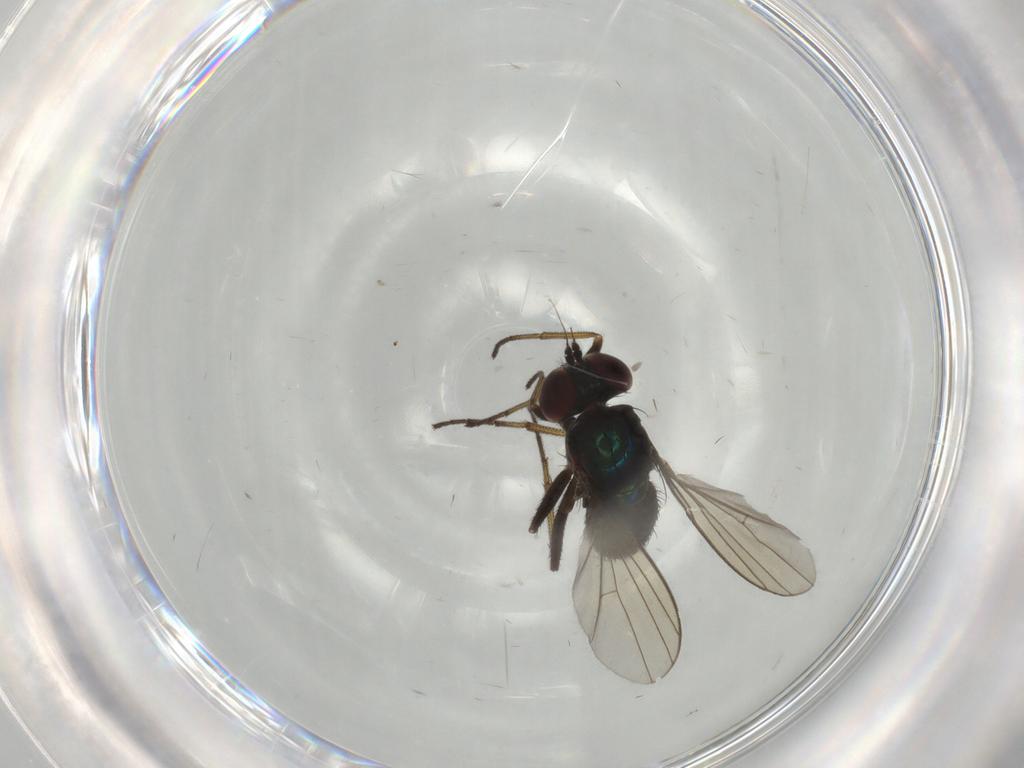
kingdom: Animalia
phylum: Arthropoda
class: Insecta
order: Diptera
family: Dolichopodidae
